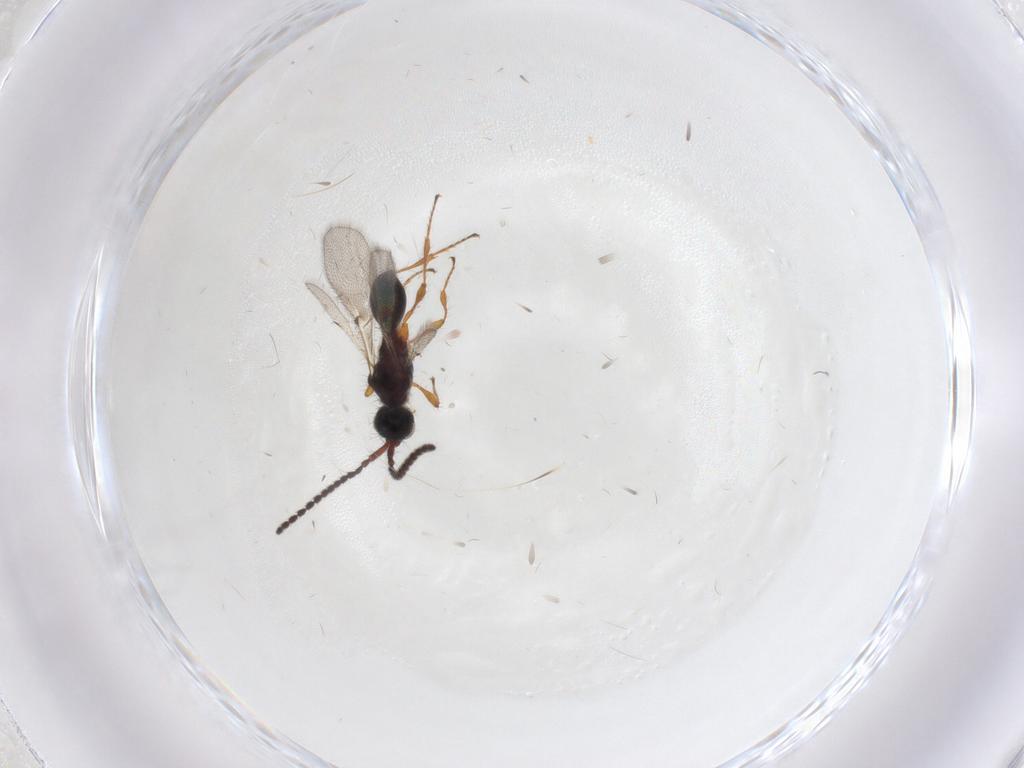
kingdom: Animalia
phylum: Arthropoda
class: Insecta
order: Hymenoptera
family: Diapriidae
